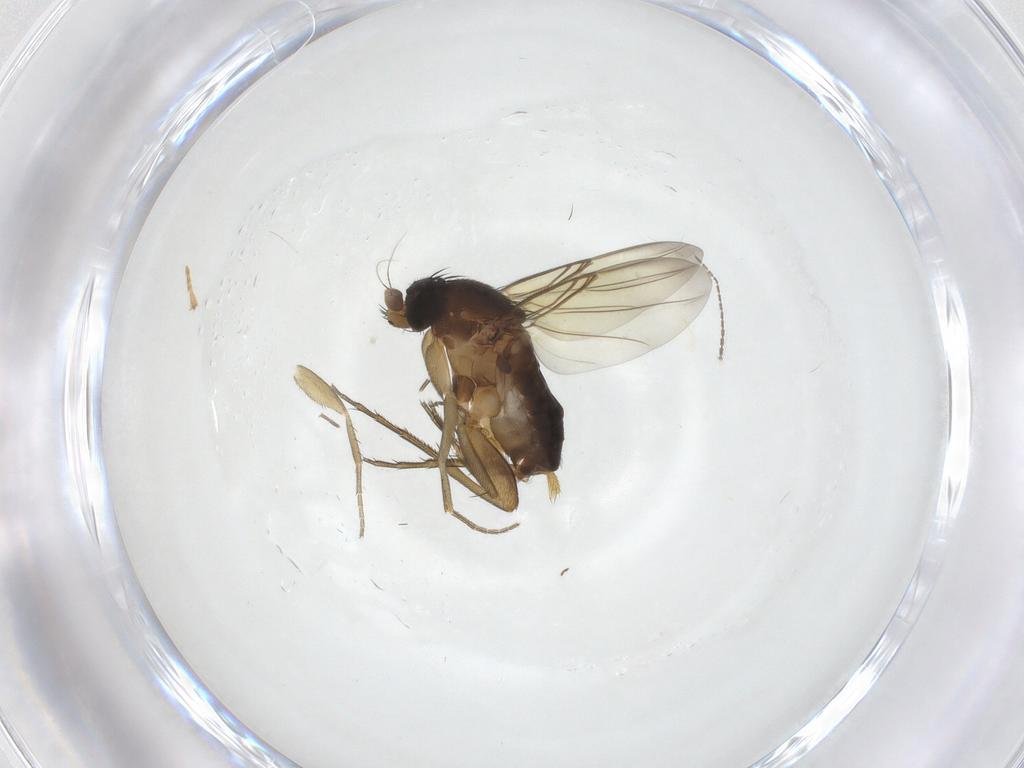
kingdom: Animalia
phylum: Arthropoda
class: Insecta
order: Diptera
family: Phoridae
